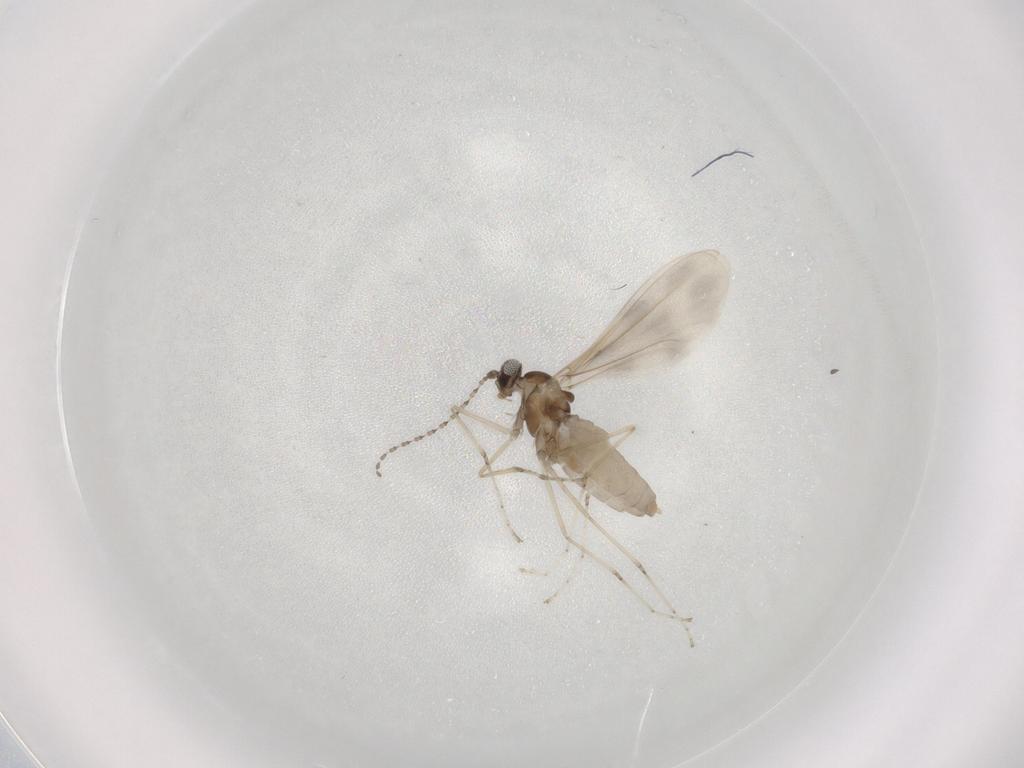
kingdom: Animalia
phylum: Arthropoda
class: Insecta
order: Diptera
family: Cecidomyiidae
